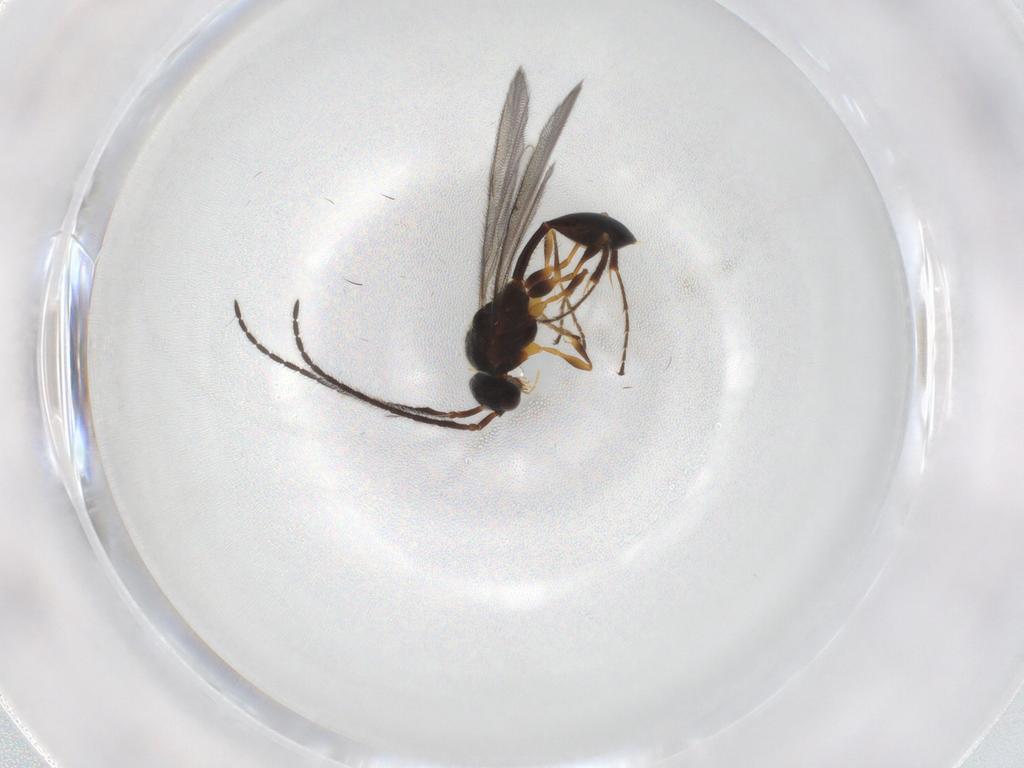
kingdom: Animalia
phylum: Arthropoda
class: Insecta
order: Hymenoptera
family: Diapriidae
